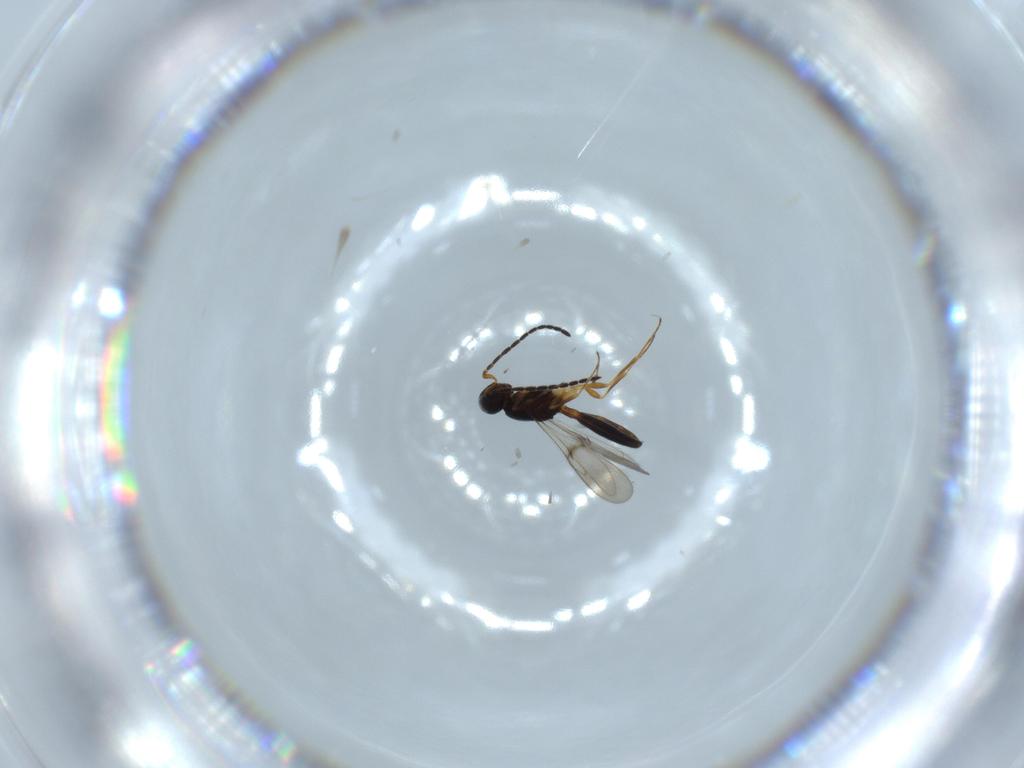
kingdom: Animalia
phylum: Arthropoda
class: Insecta
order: Hymenoptera
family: Scelionidae
